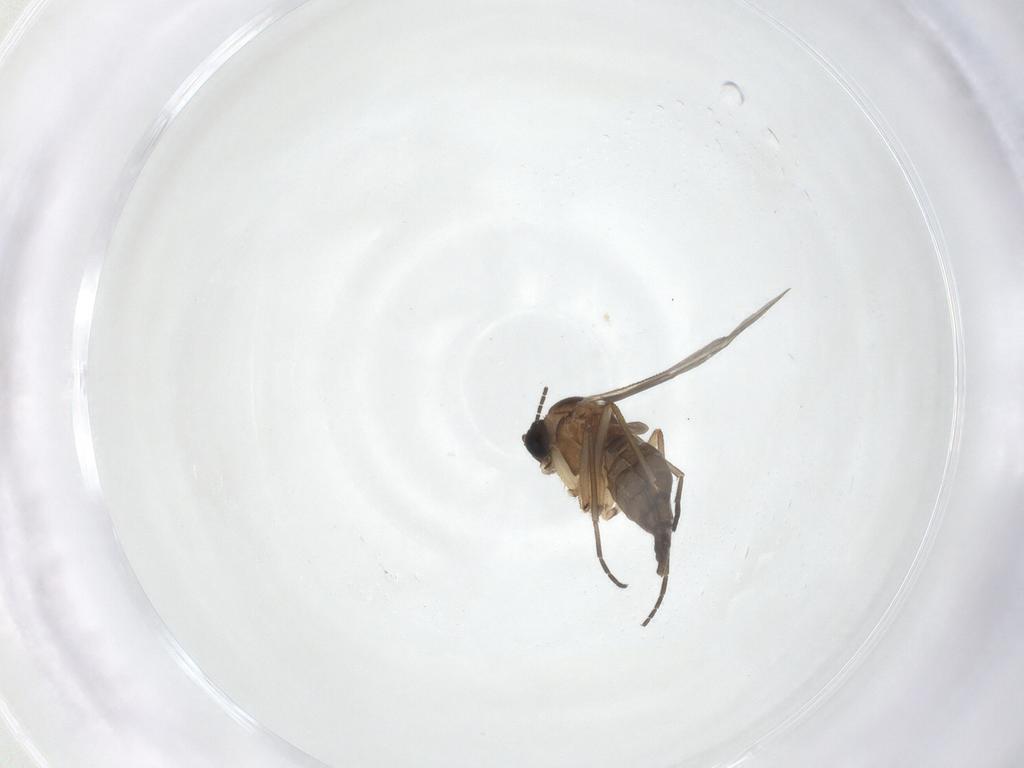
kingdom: Animalia
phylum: Arthropoda
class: Insecta
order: Diptera
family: Sciaridae
